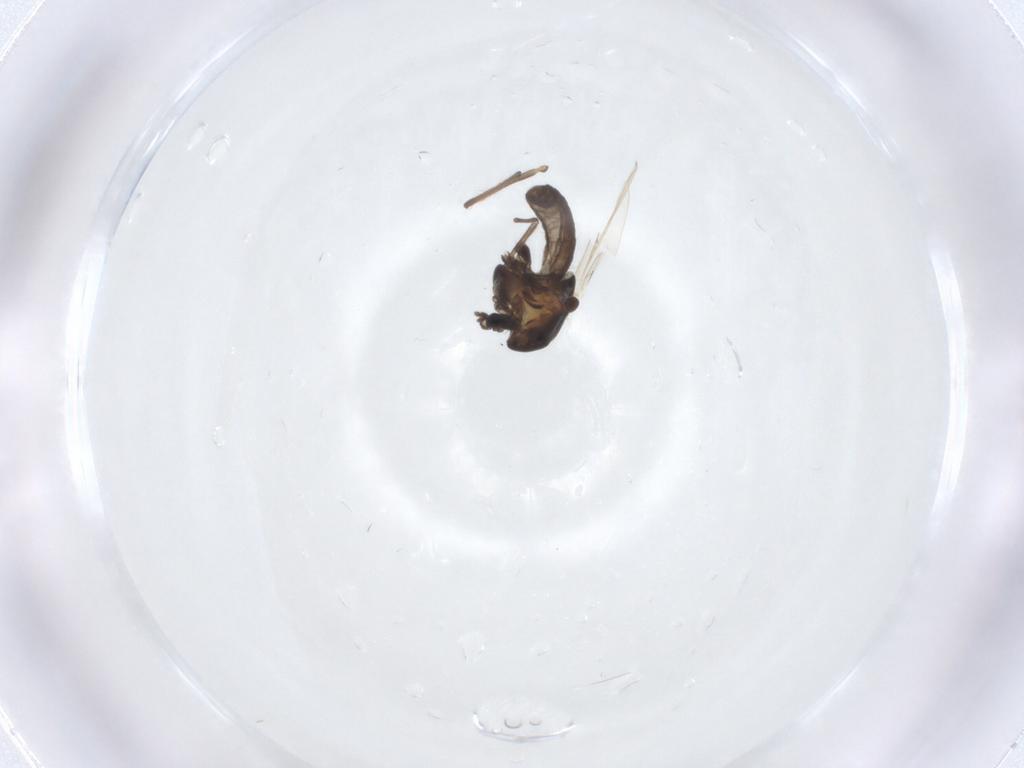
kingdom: Animalia
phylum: Arthropoda
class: Insecta
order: Diptera
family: Chironomidae
